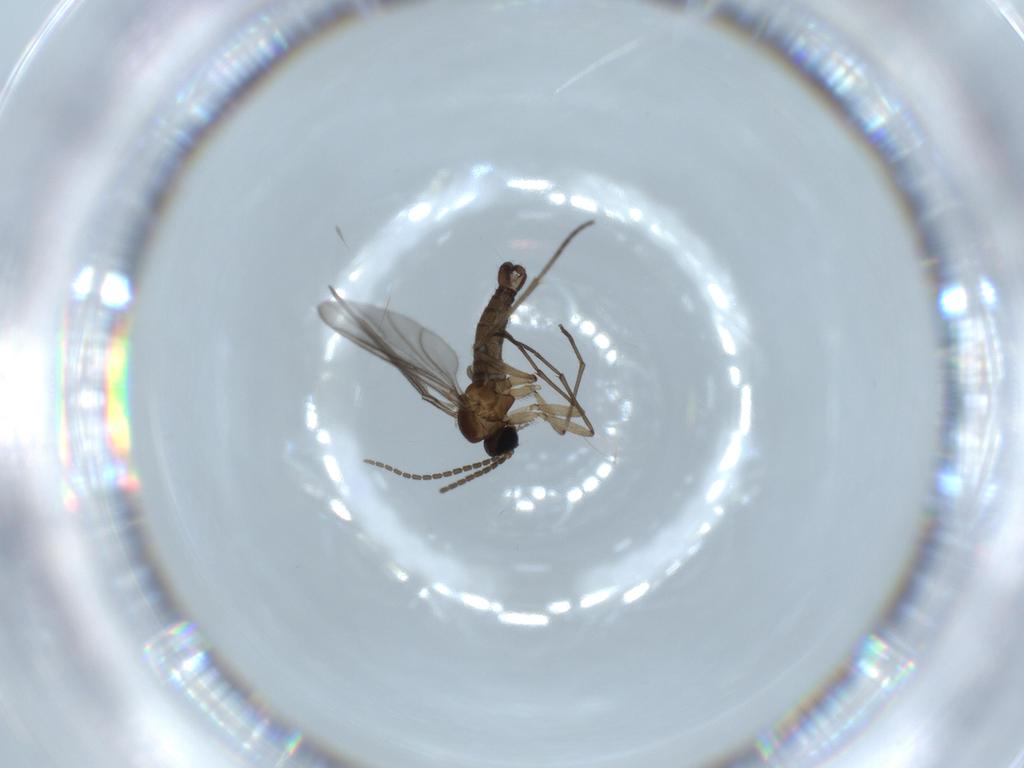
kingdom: Animalia
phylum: Arthropoda
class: Insecta
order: Diptera
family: Sciaridae
